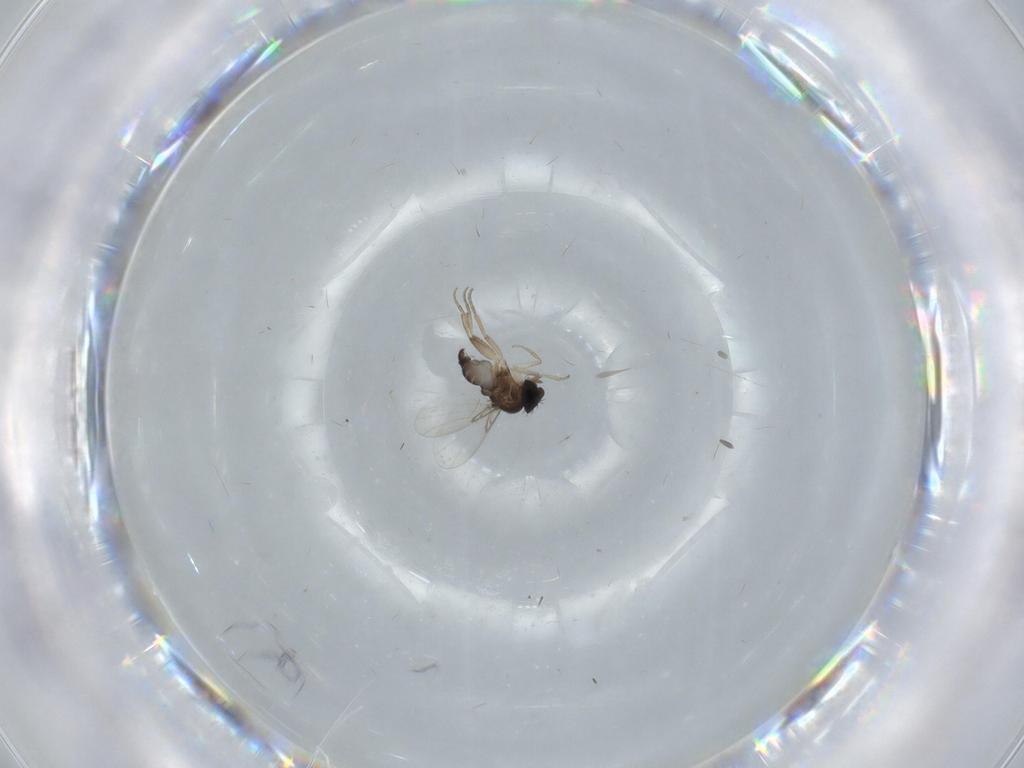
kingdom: Animalia
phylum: Arthropoda
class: Insecta
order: Diptera
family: Phoridae
